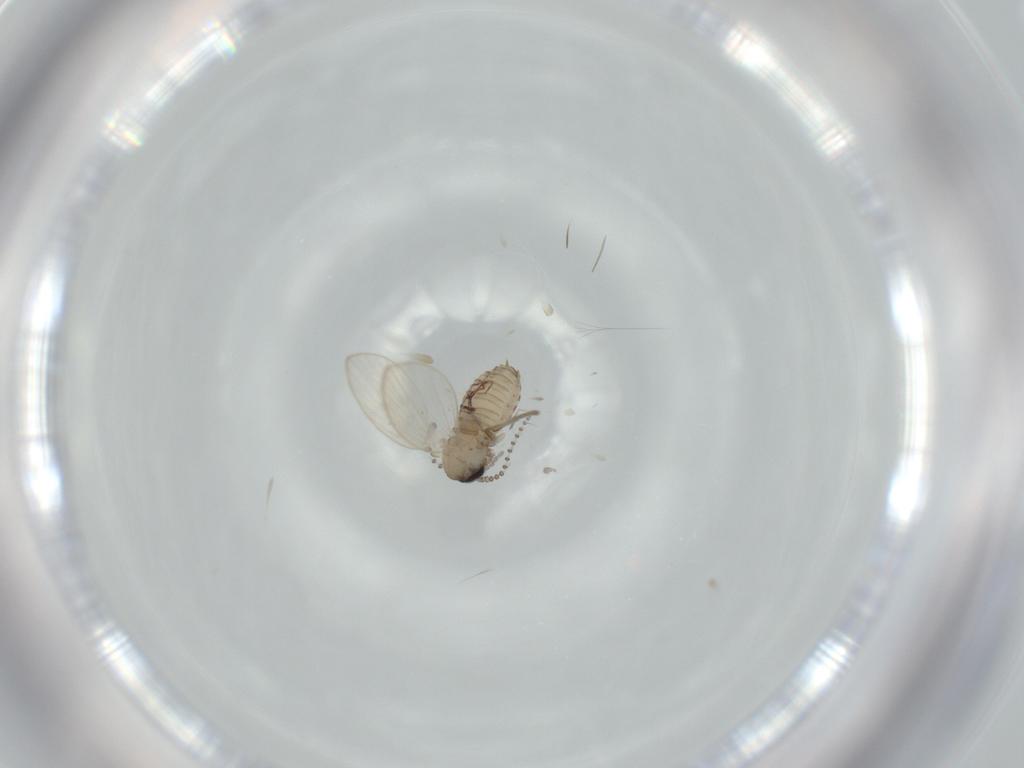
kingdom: Animalia
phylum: Arthropoda
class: Insecta
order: Diptera
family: Psychodidae
